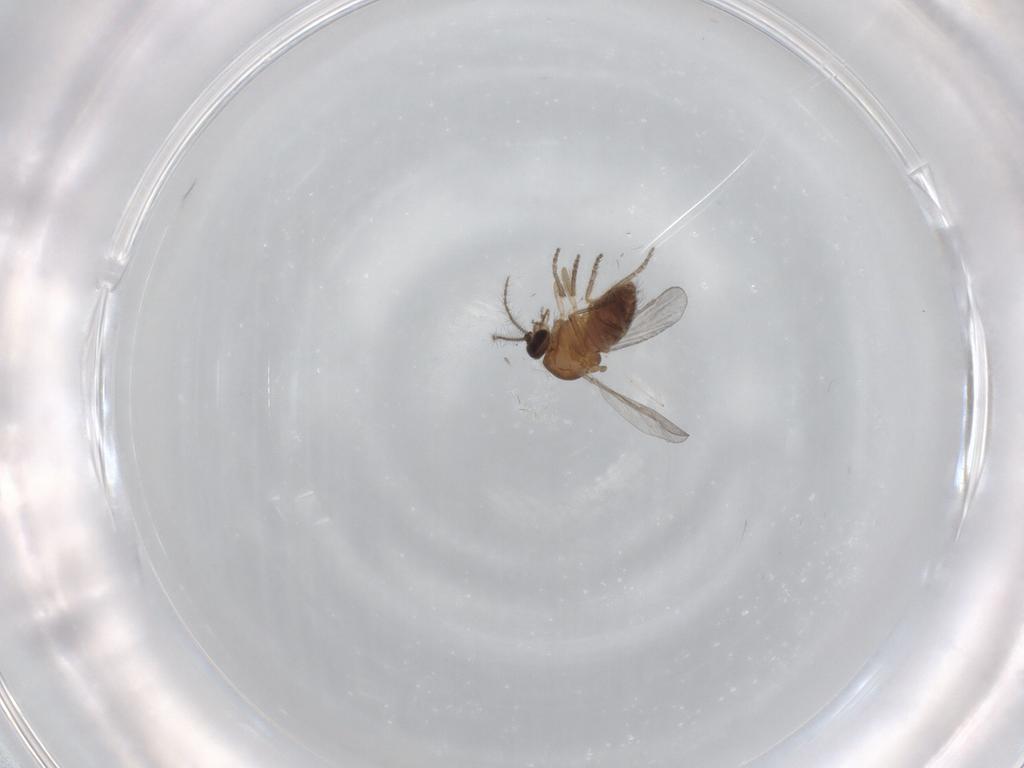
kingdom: Animalia
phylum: Arthropoda
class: Insecta
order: Diptera
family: Ceratopogonidae
